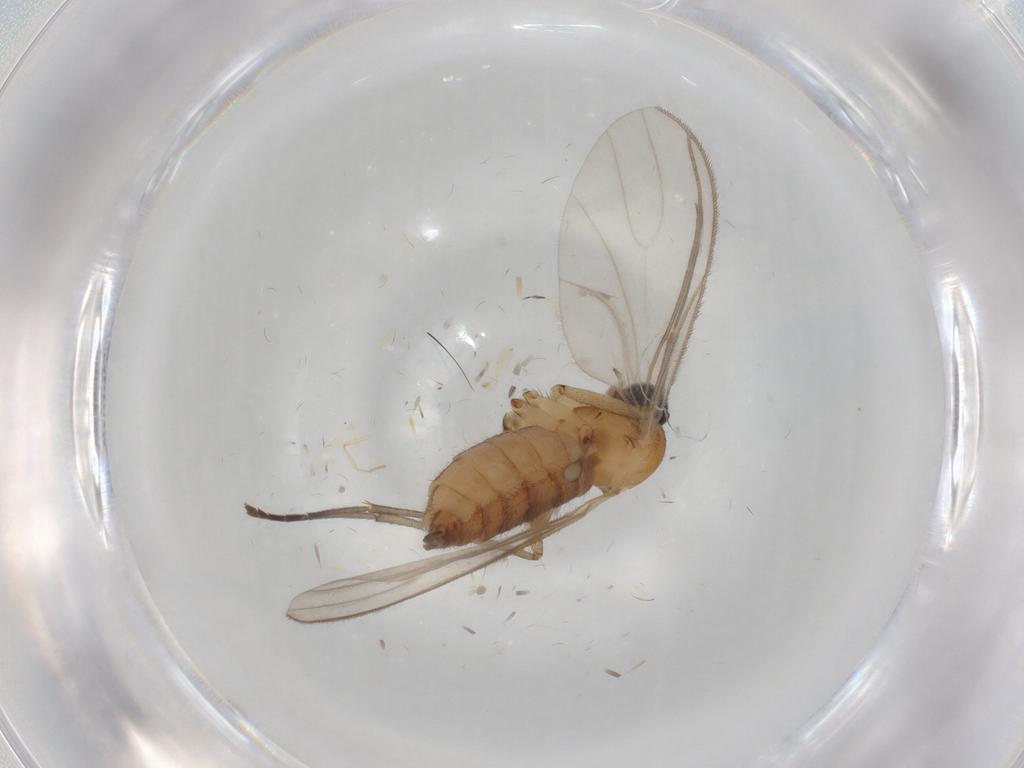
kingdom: Animalia
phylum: Arthropoda
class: Insecta
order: Diptera
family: Sciaridae
